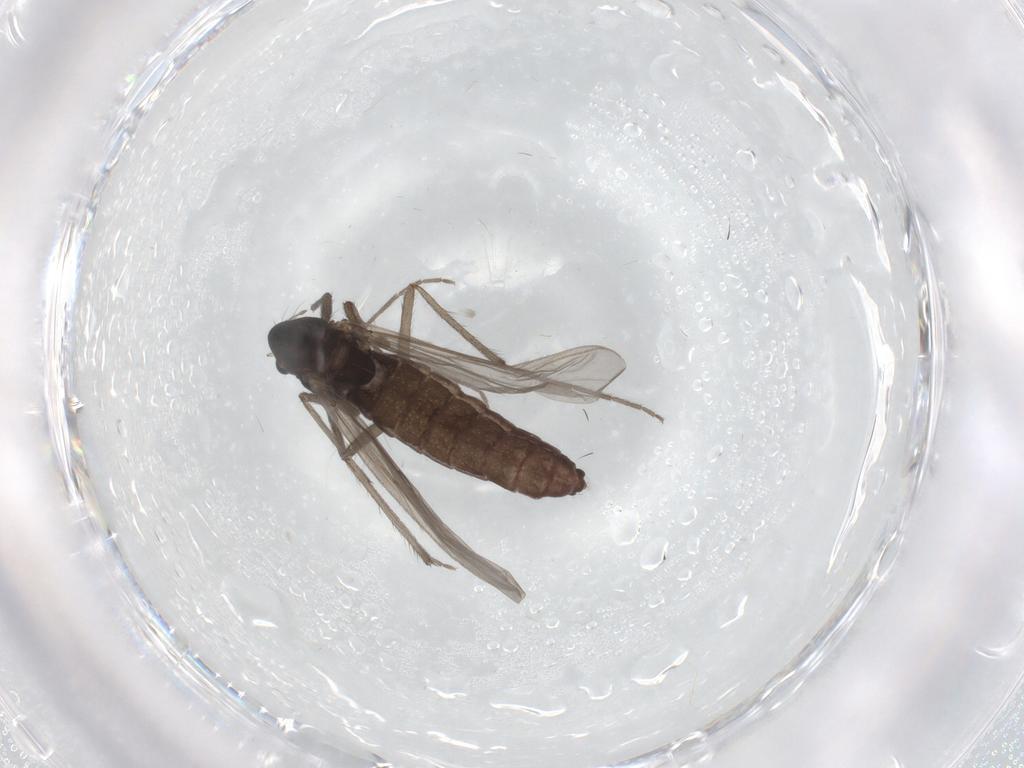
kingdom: Animalia
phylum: Arthropoda
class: Insecta
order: Diptera
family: Chironomidae
